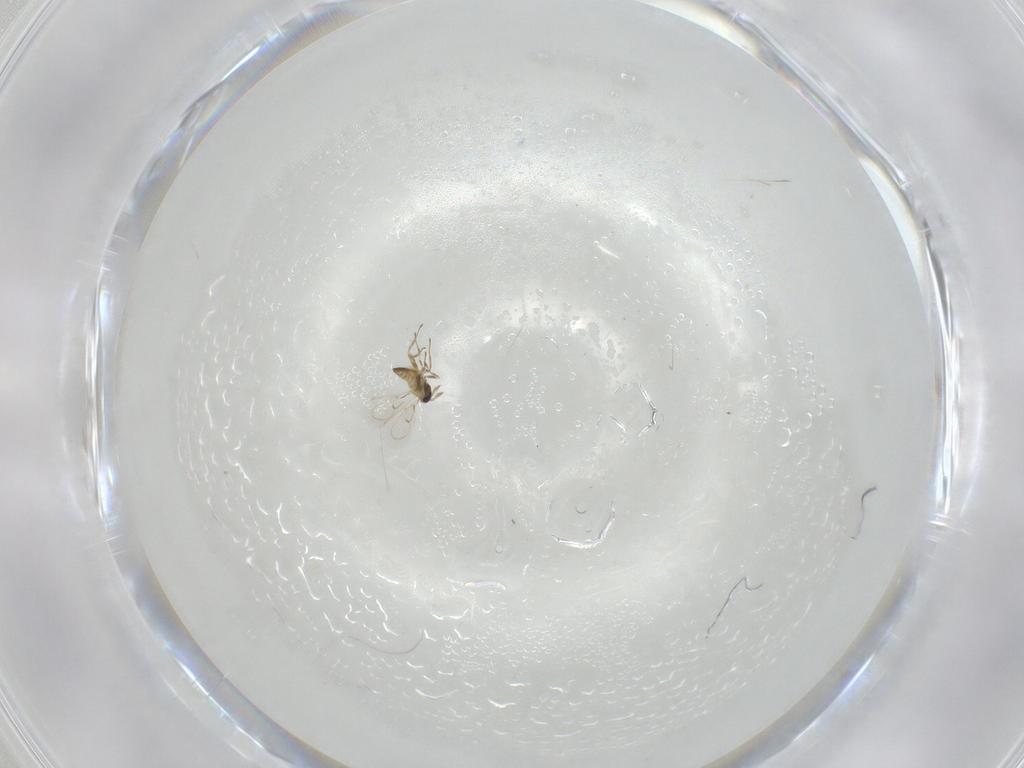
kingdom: Animalia
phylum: Arthropoda
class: Insecta
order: Hymenoptera
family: Trichogrammatidae
